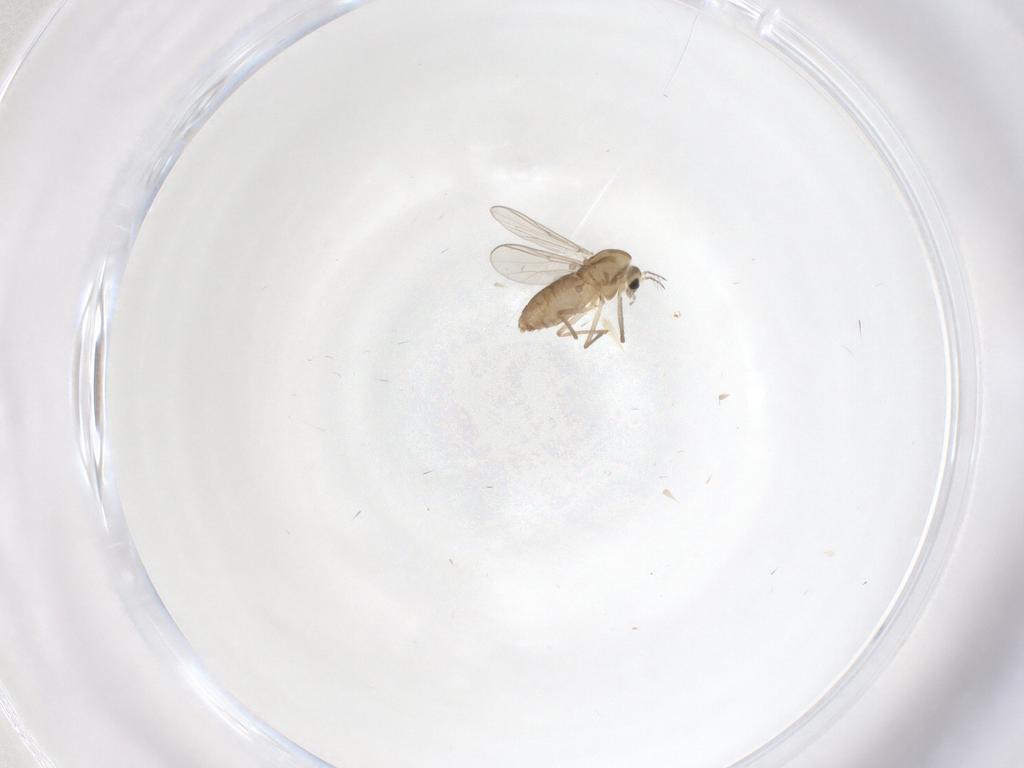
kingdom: Animalia
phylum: Arthropoda
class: Insecta
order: Diptera
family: Chironomidae
